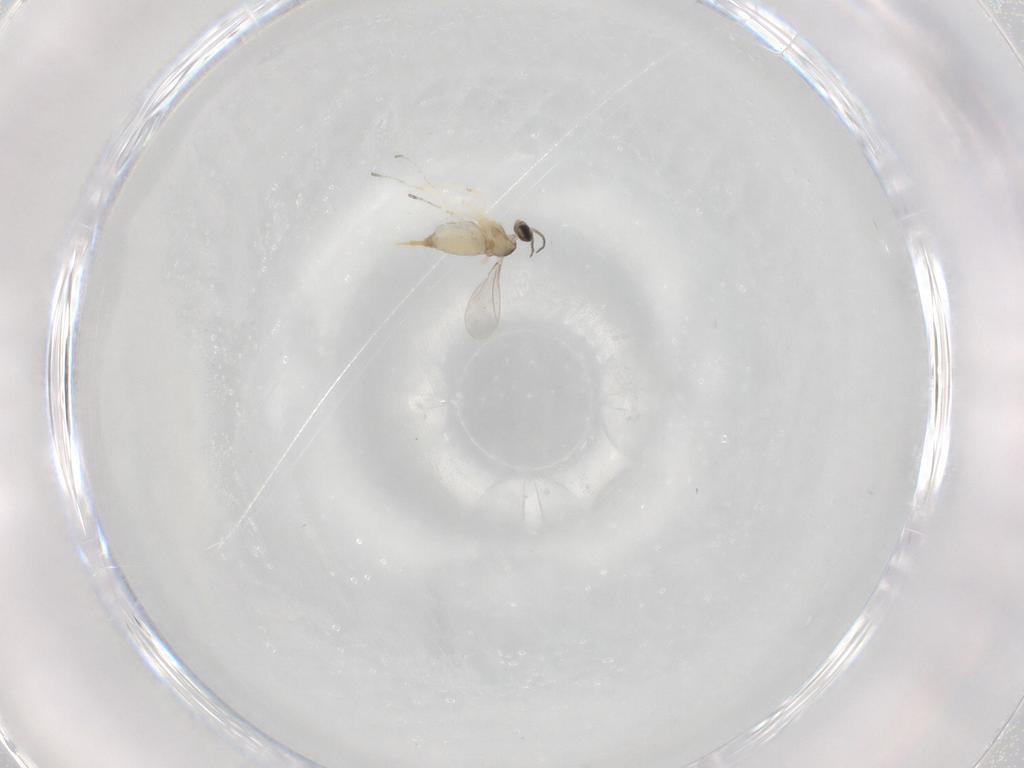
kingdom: Animalia
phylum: Arthropoda
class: Insecta
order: Diptera
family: Cecidomyiidae
